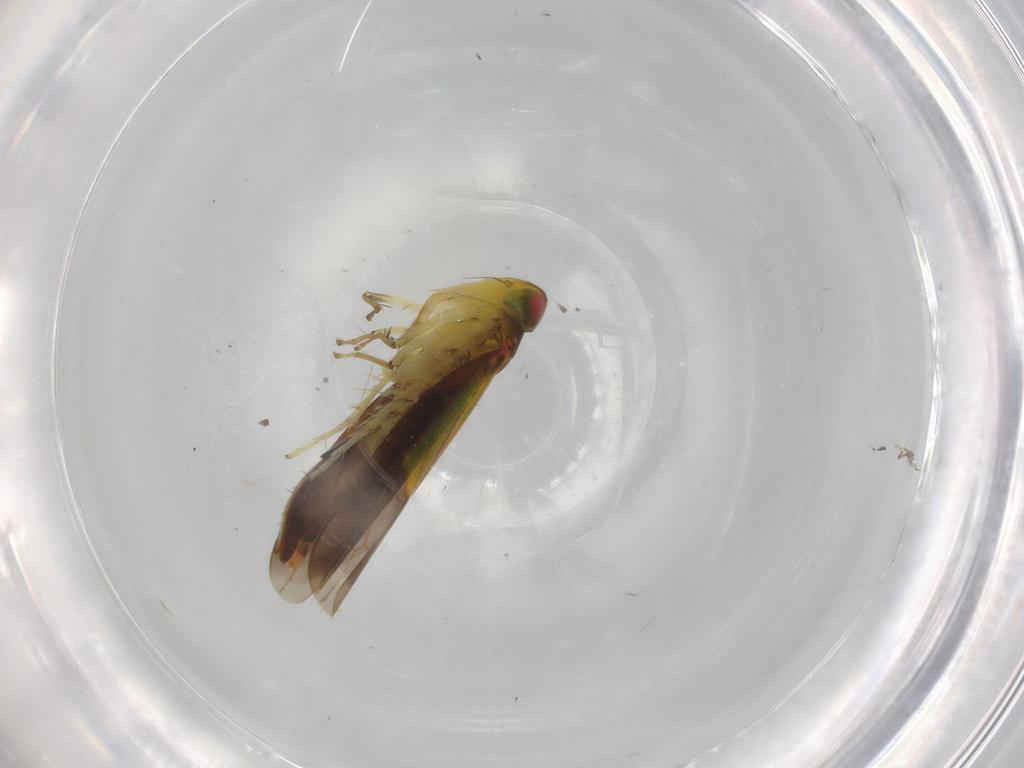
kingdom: Animalia
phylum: Arthropoda
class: Insecta
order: Hemiptera
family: Cicadellidae
